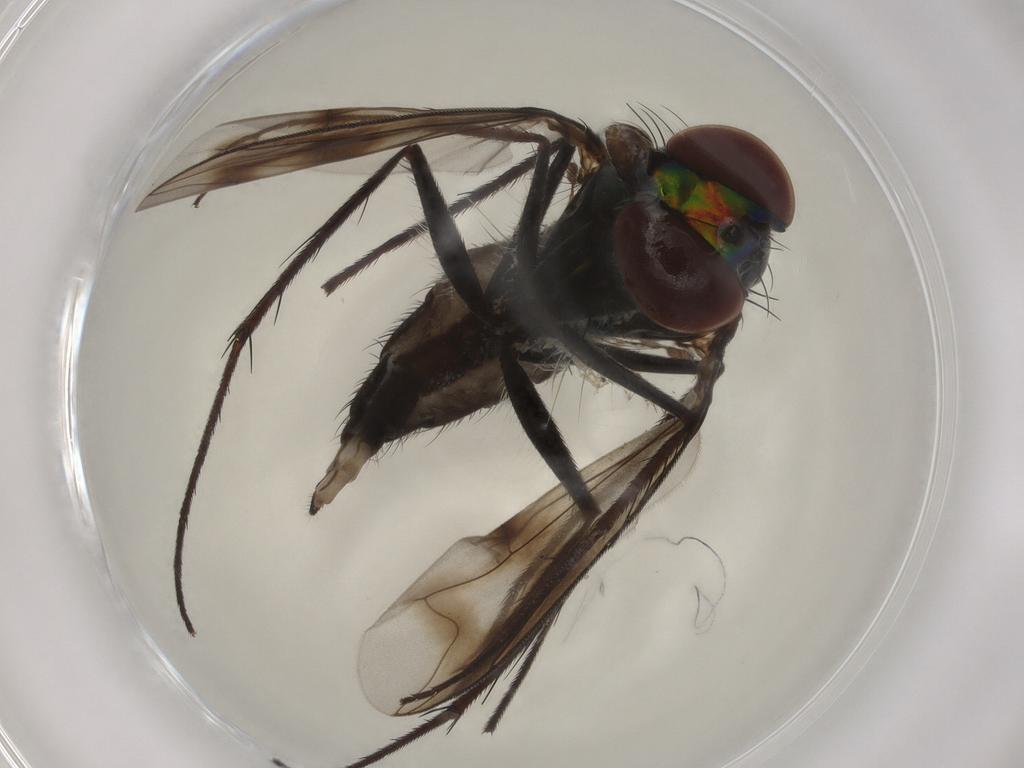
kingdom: Animalia
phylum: Arthropoda
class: Insecta
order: Diptera
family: Dolichopodidae
